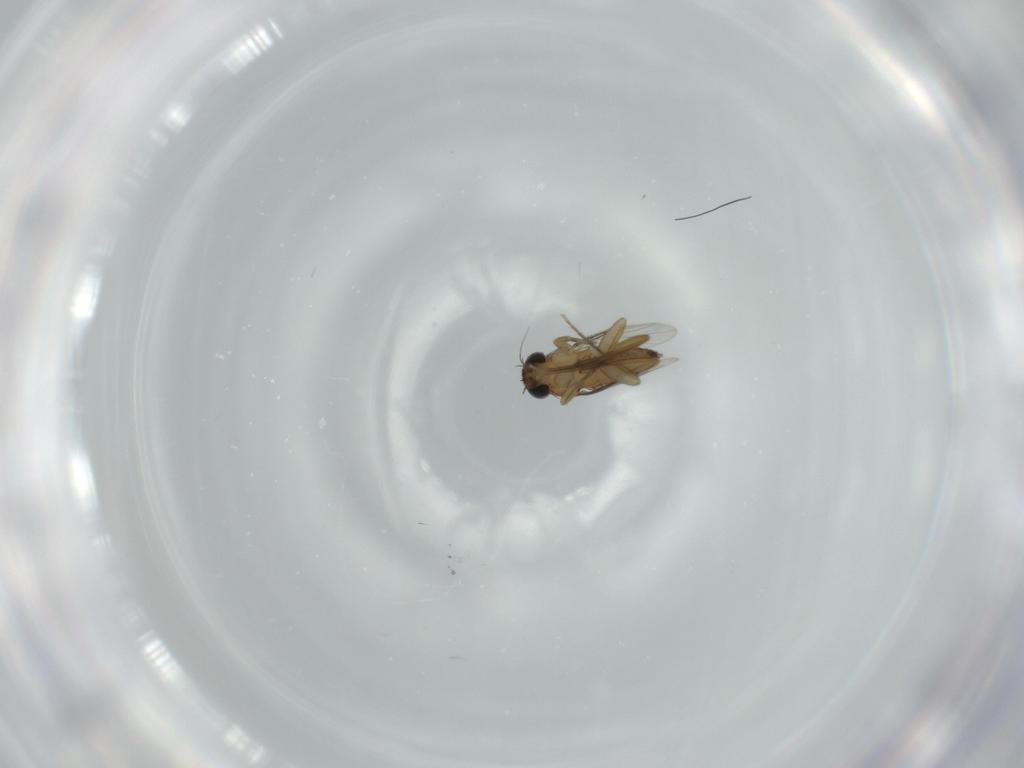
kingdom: Animalia
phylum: Arthropoda
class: Insecta
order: Diptera
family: Phoridae
